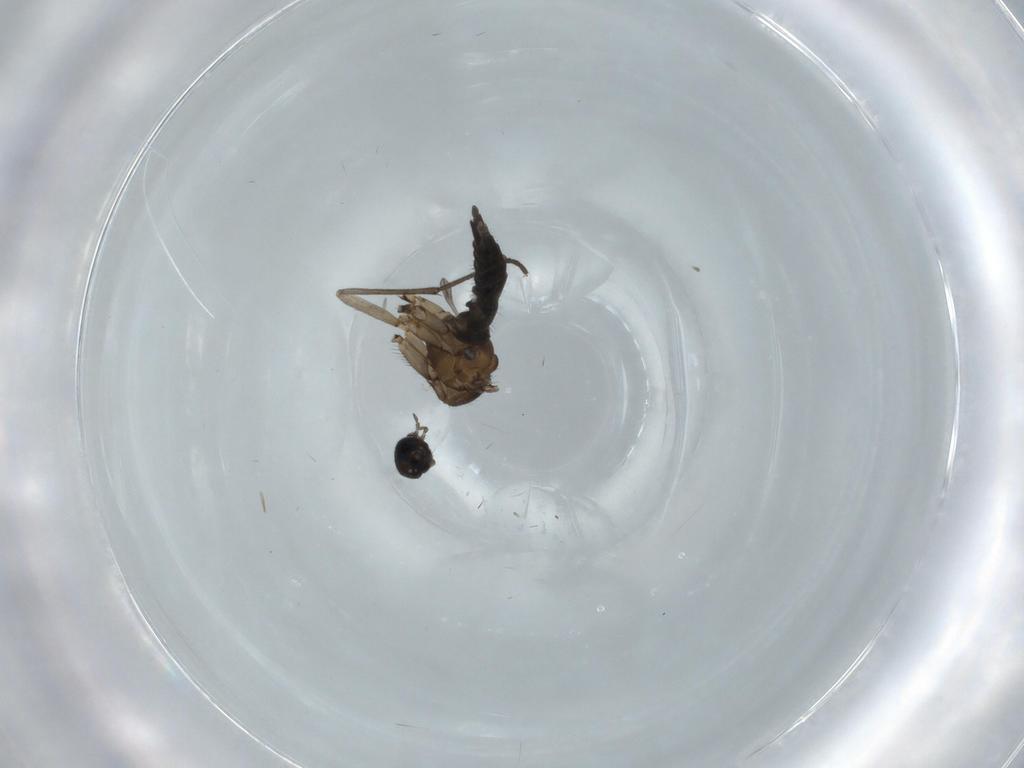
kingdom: Animalia
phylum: Arthropoda
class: Insecta
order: Diptera
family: Sciaridae
